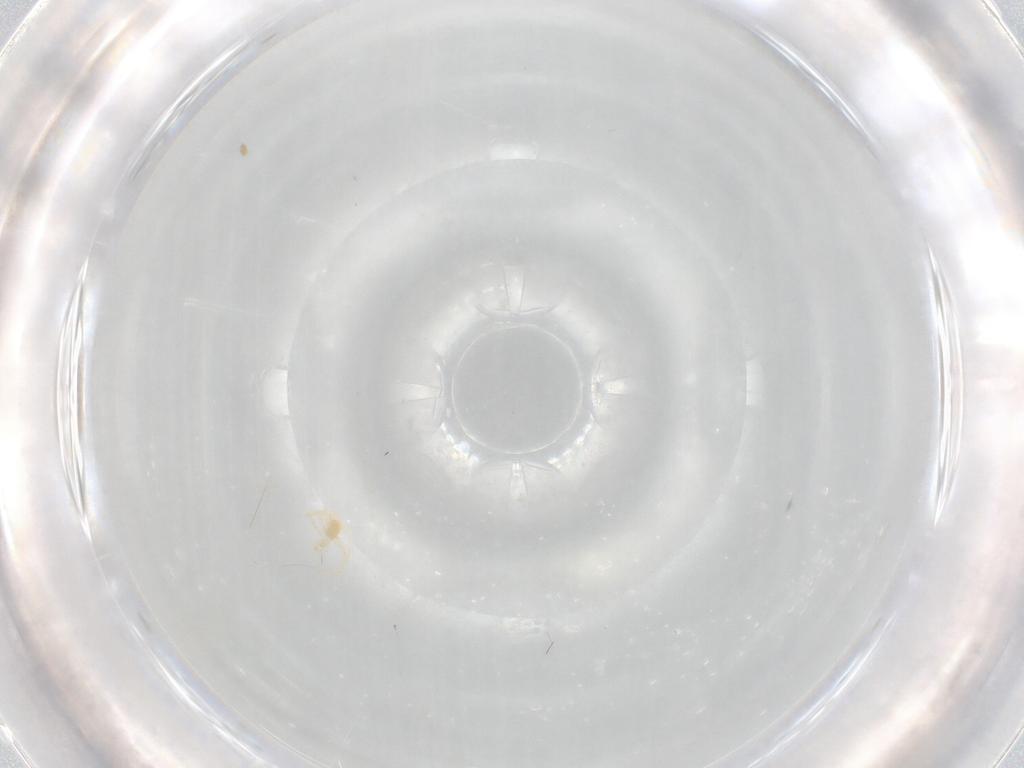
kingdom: Animalia
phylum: Arthropoda
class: Arachnida
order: Trombidiformes
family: Erythraeidae
